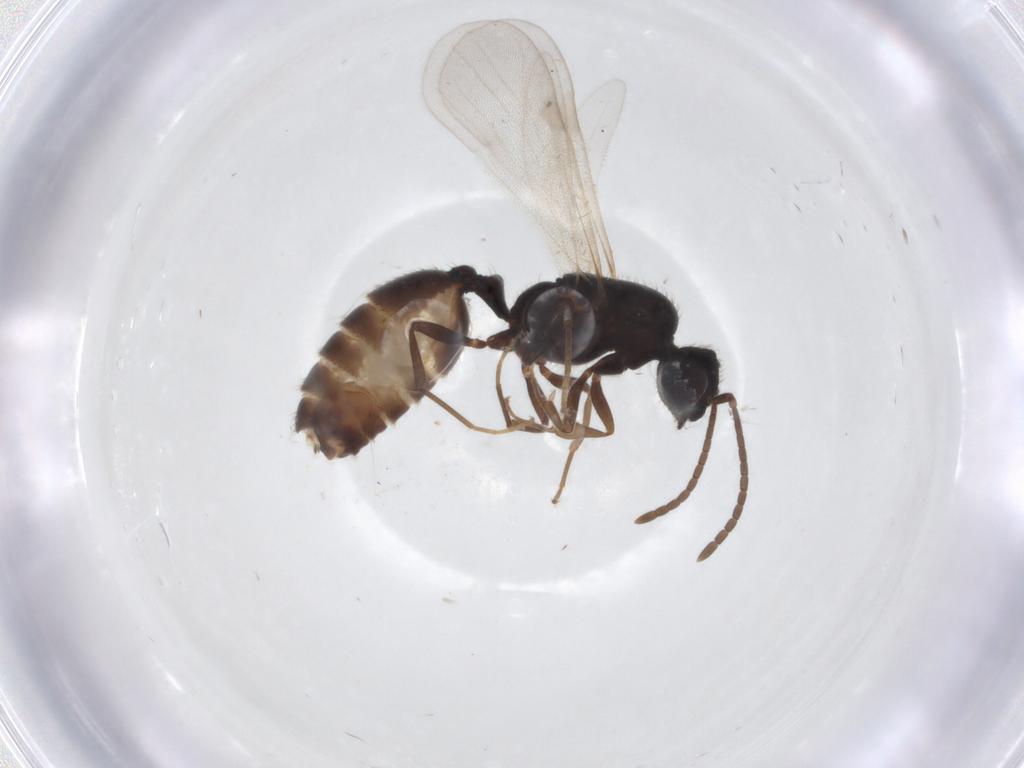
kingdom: Animalia
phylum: Arthropoda
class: Insecta
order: Hymenoptera
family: Formicidae
